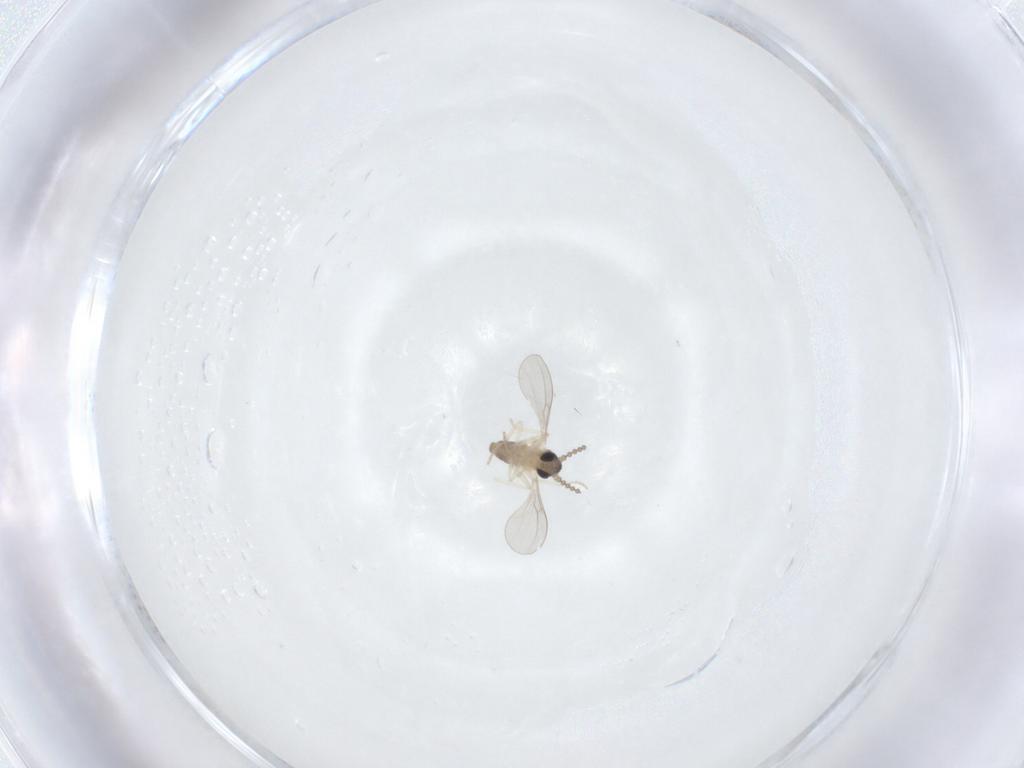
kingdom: Animalia
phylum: Arthropoda
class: Insecta
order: Diptera
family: Cecidomyiidae
